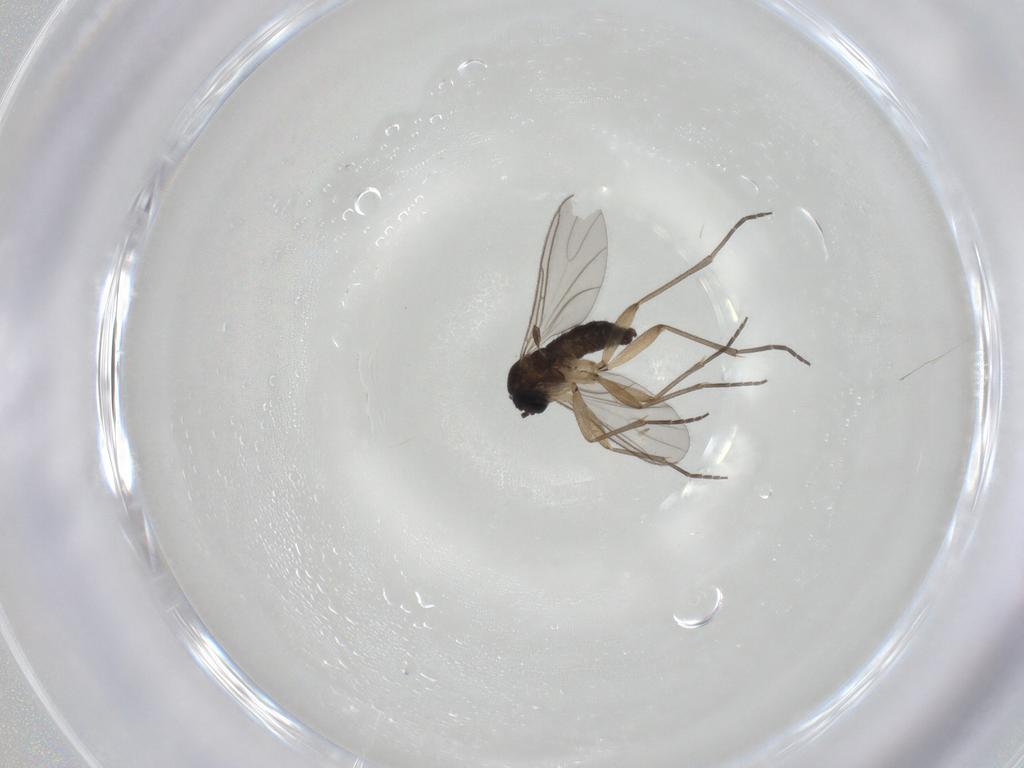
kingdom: Animalia
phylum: Arthropoda
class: Insecta
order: Diptera
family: Sciaridae
